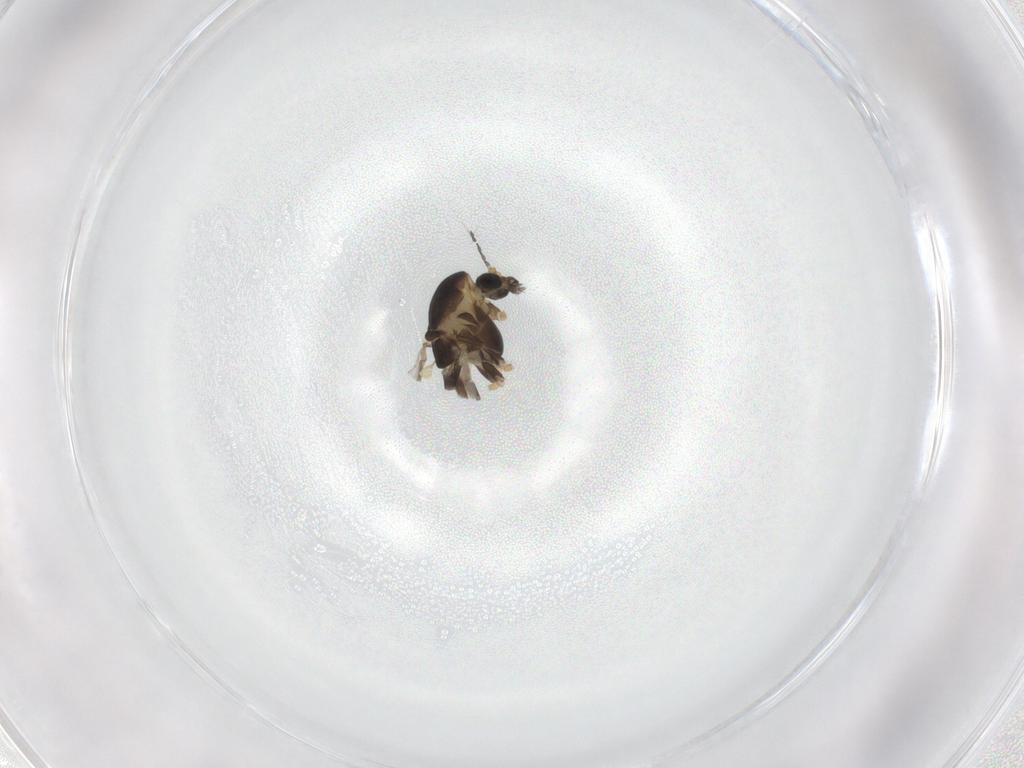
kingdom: Animalia
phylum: Arthropoda
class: Insecta
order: Diptera
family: Chironomidae
